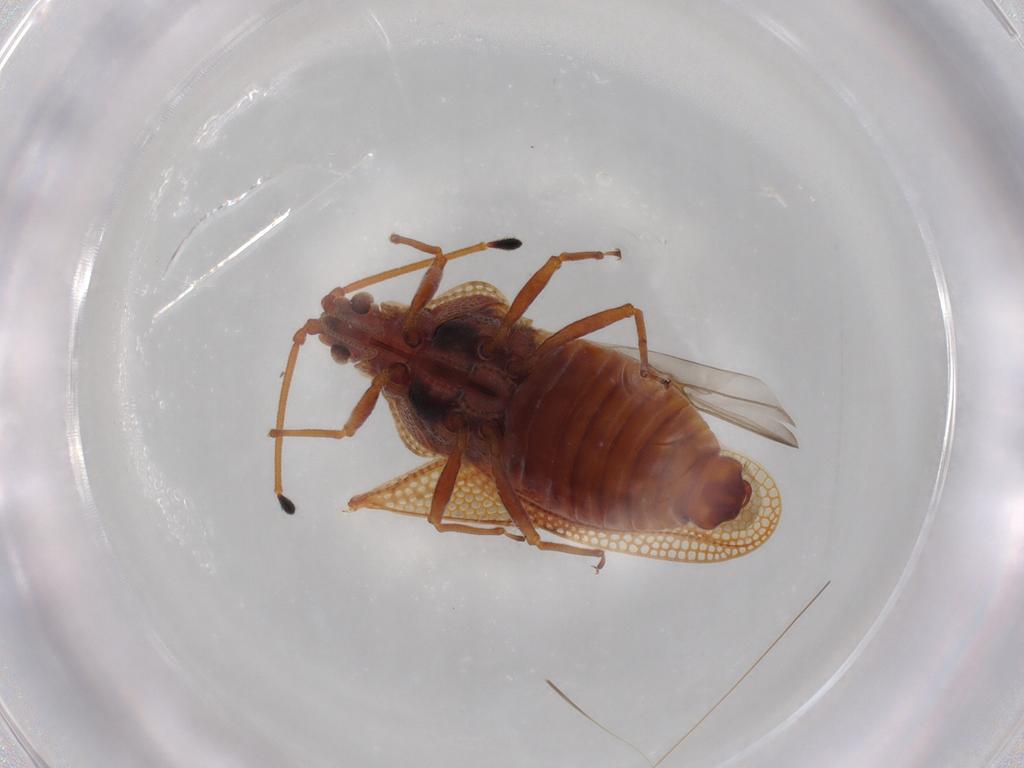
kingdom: Animalia
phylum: Arthropoda
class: Insecta
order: Hemiptera
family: Tingidae
